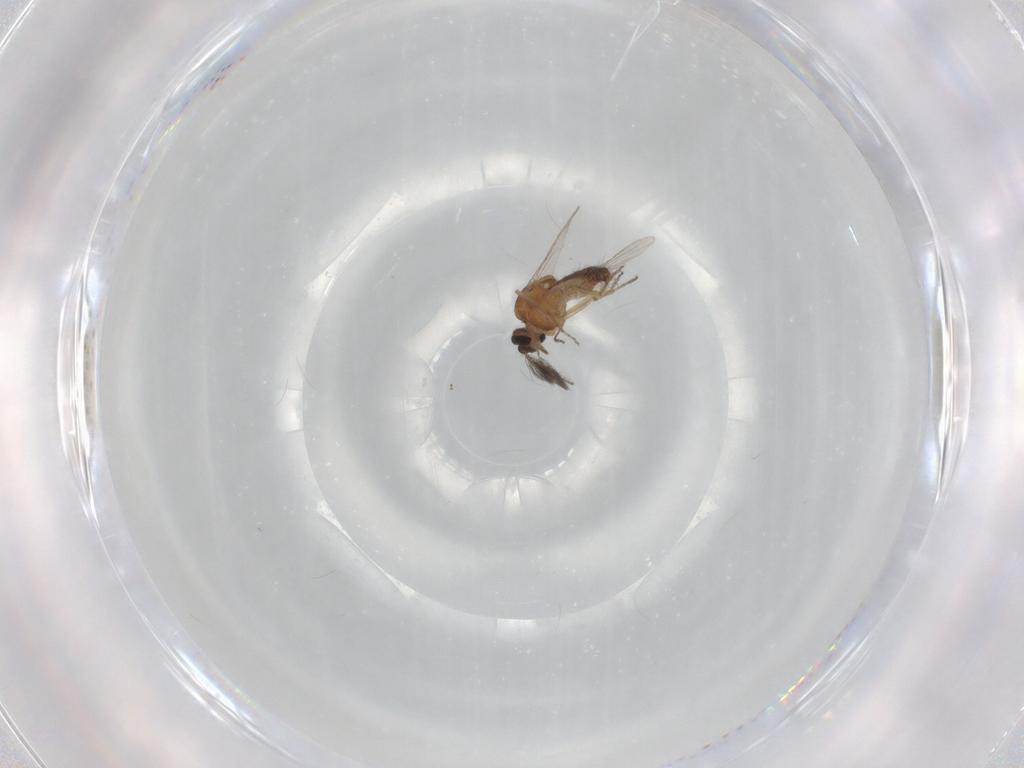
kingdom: Animalia
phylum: Arthropoda
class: Insecta
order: Diptera
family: Ceratopogonidae
